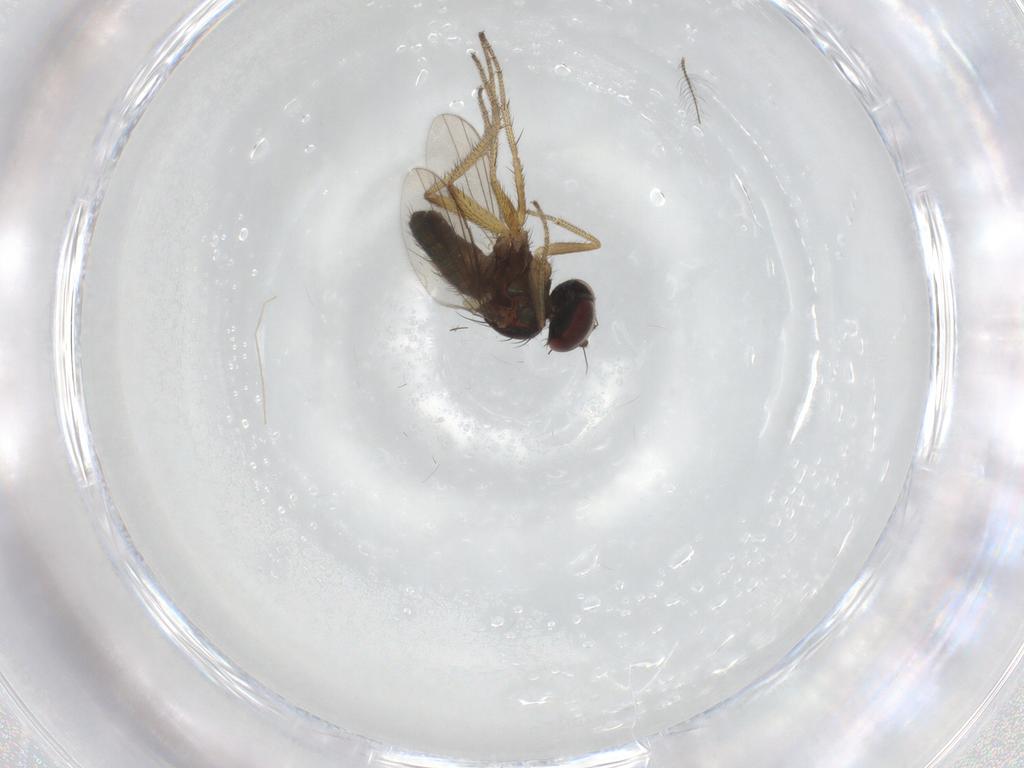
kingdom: Animalia
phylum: Arthropoda
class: Insecta
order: Diptera
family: Dolichopodidae
